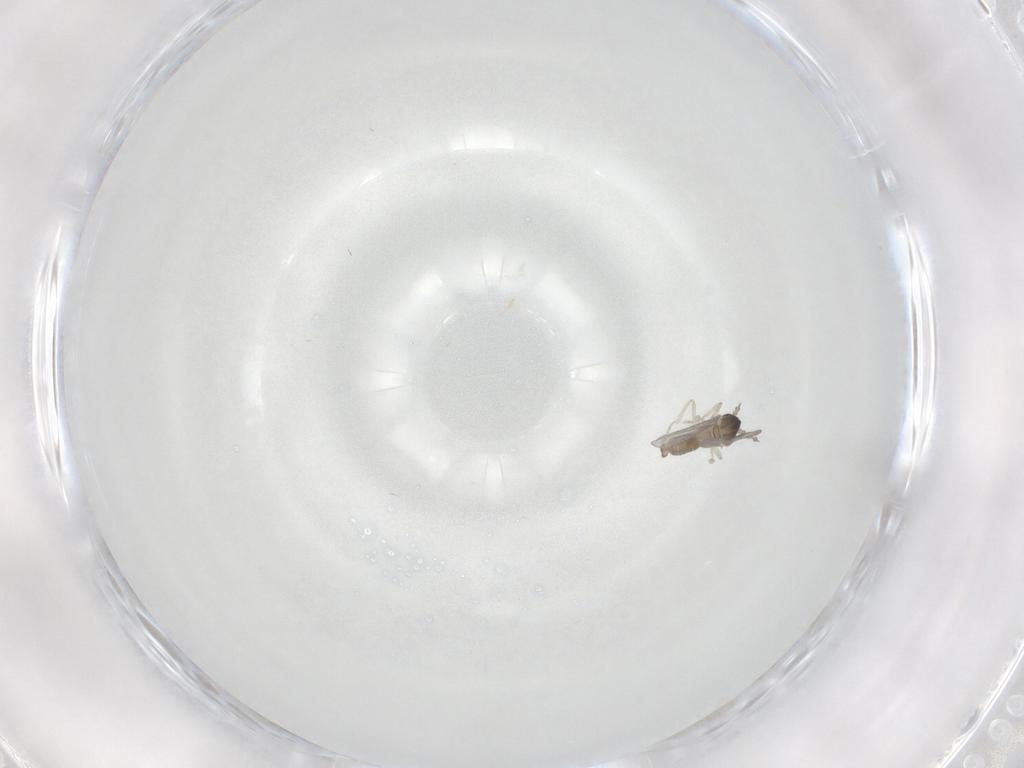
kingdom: Animalia
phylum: Arthropoda
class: Insecta
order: Diptera
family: Cecidomyiidae
